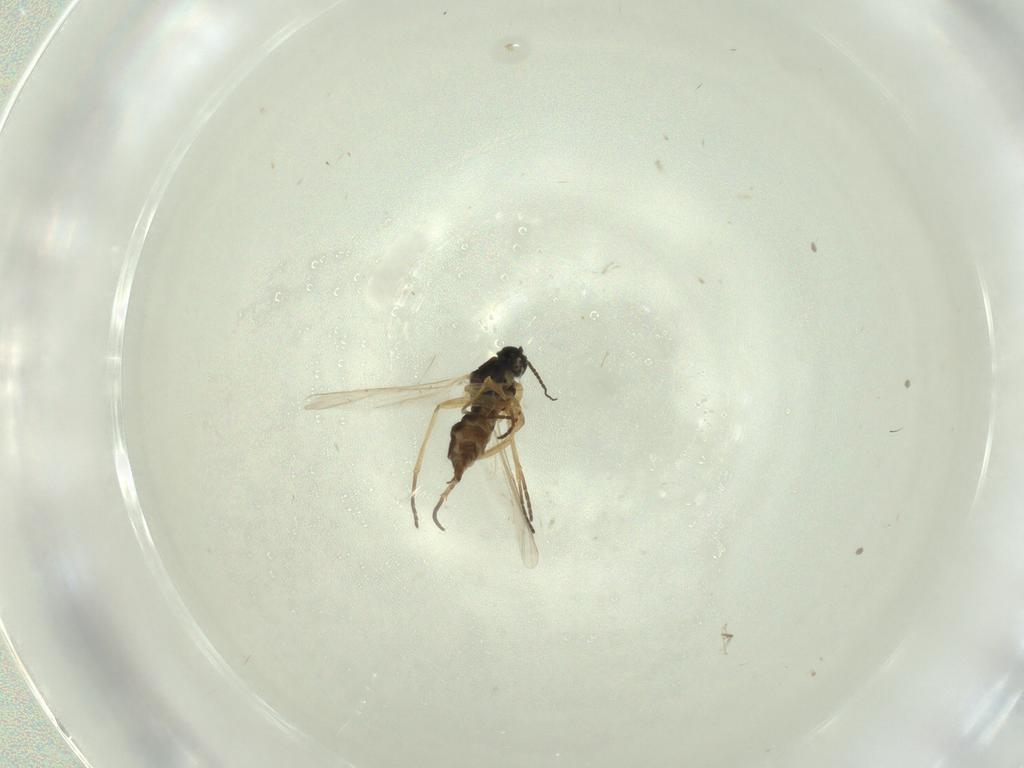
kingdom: Animalia
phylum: Arthropoda
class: Insecta
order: Diptera
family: Sciaridae
